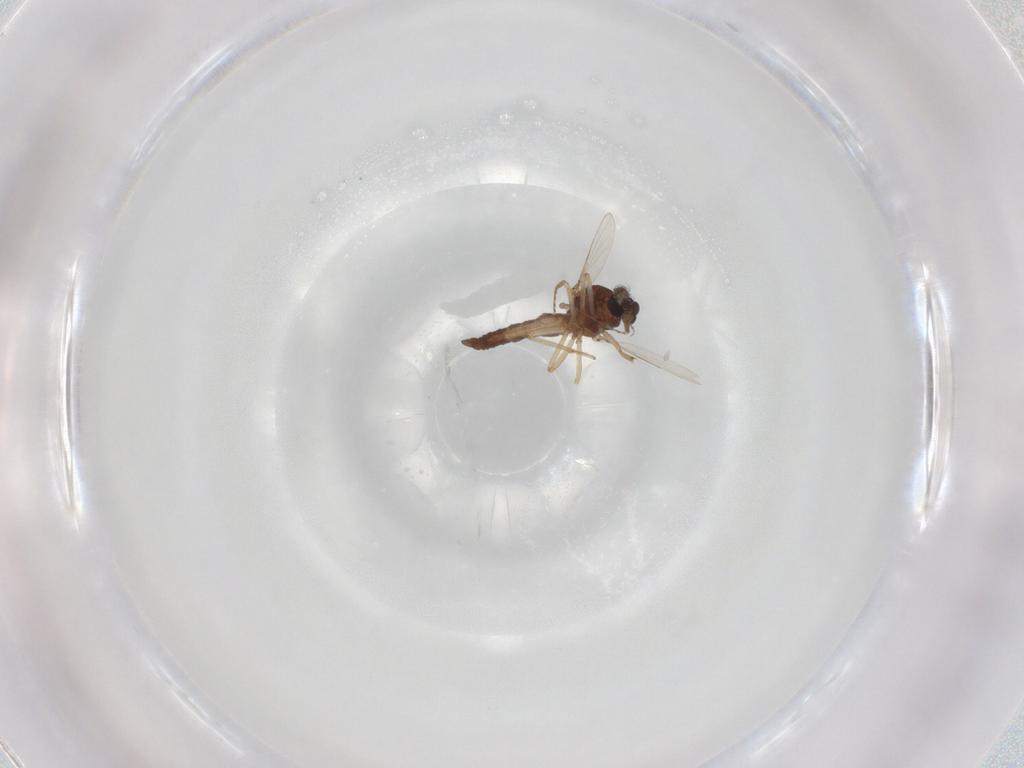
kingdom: Animalia
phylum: Arthropoda
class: Insecta
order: Diptera
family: Ceratopogonidae
